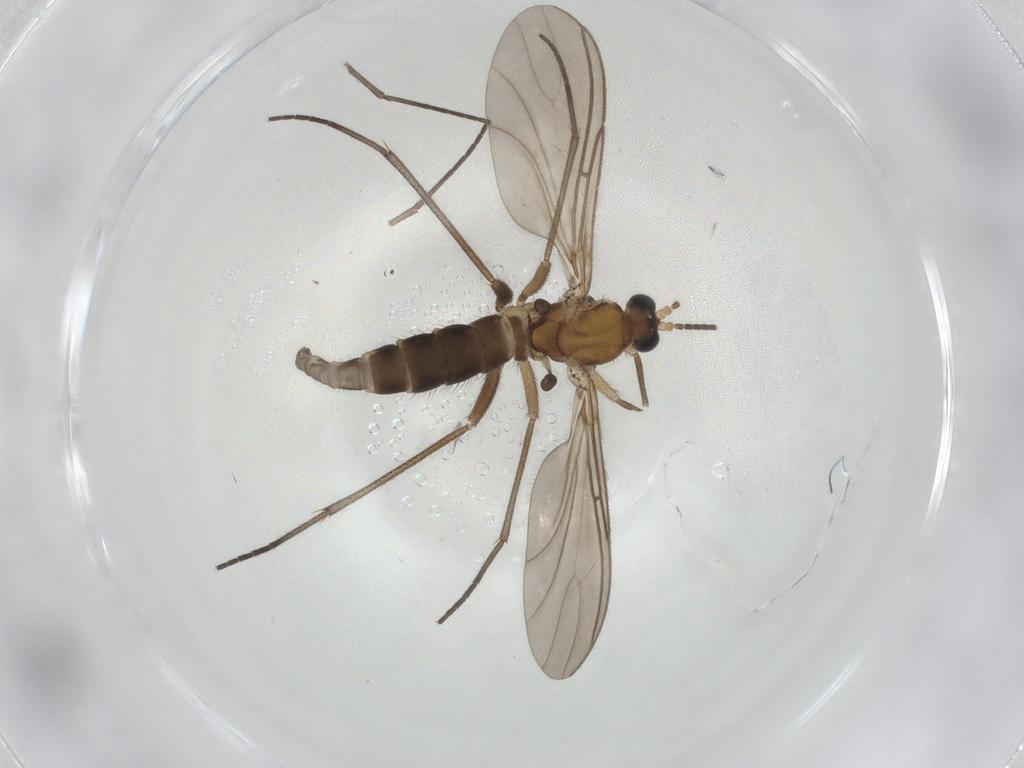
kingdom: Animalia
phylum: Arthropoda
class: Insecta
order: Diptera
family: Sciaridae
